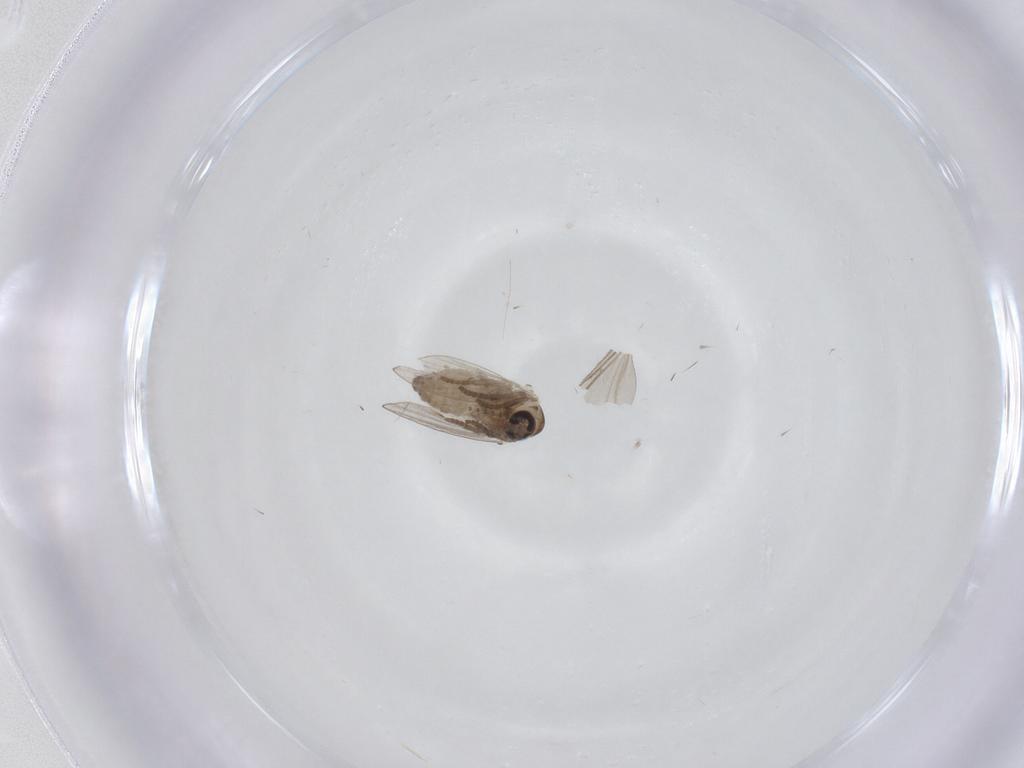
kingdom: Animalia
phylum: Arthropoda
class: Insecta
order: Diptera
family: Psychodidae
